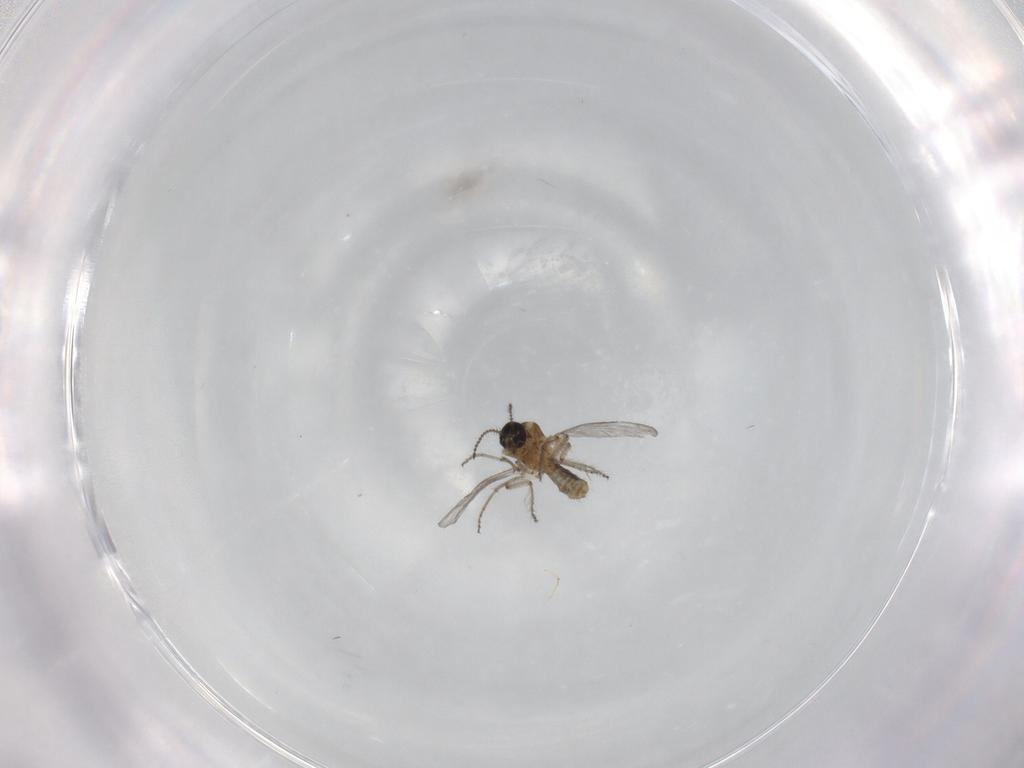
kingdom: Animalia
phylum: Arthropoda
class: Insecta
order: Diptera
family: Ceratopogonidae
